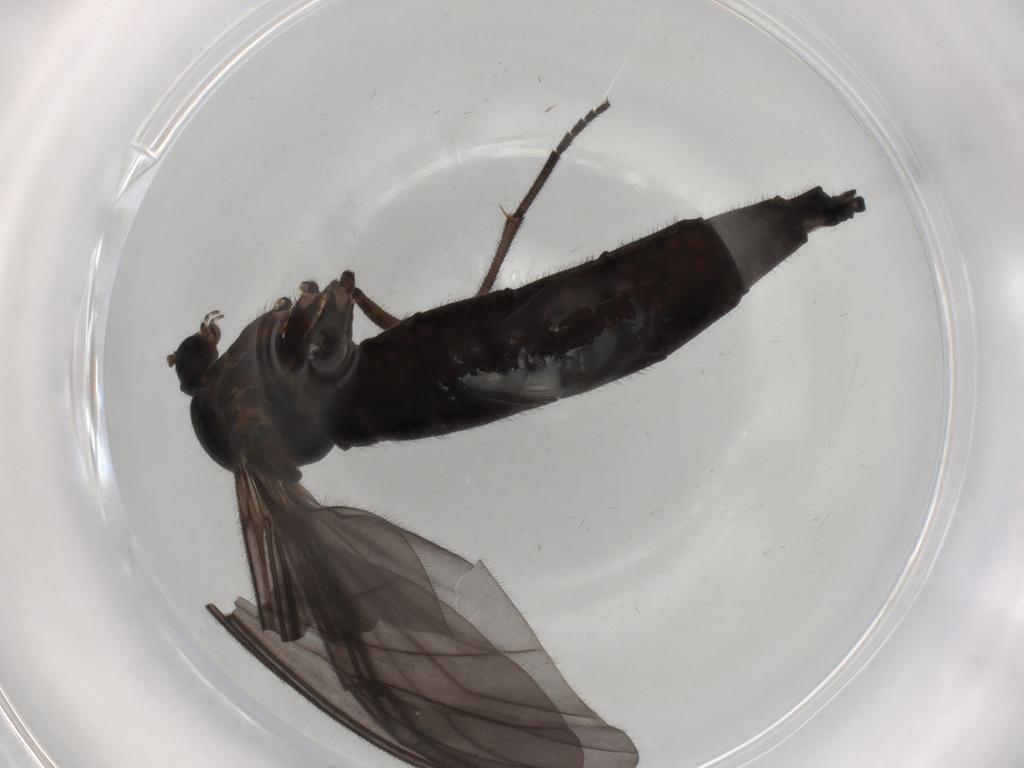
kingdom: Animalia
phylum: Arthropoda
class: Insecta
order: Diptera
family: Sciaridae
